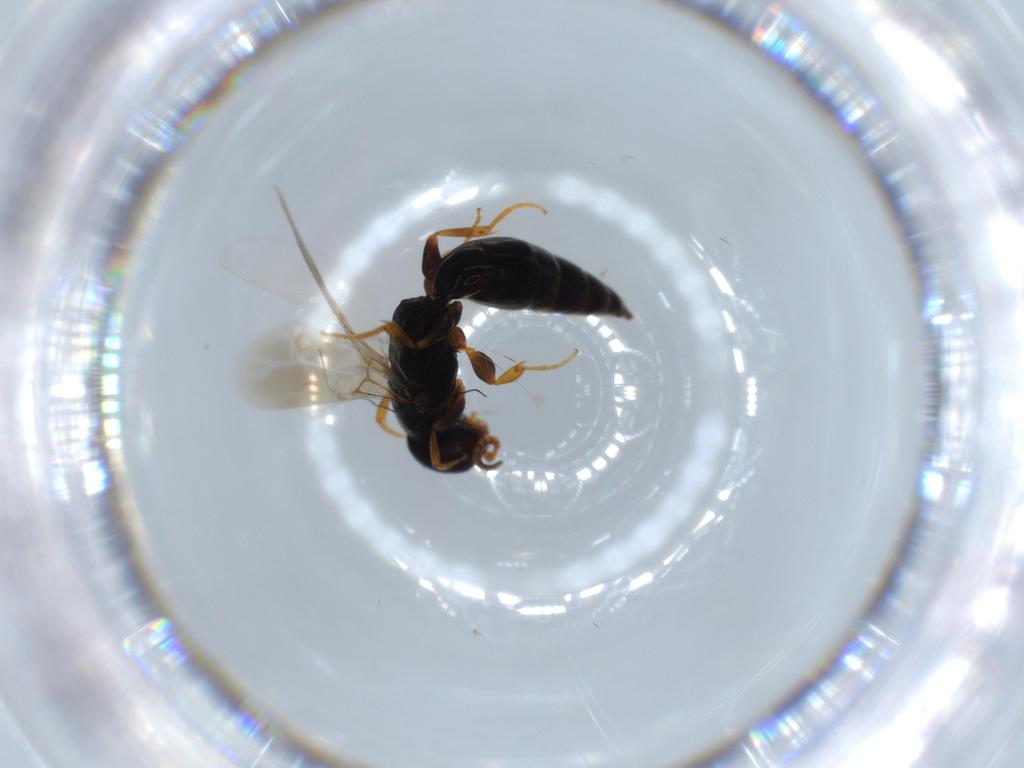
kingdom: Animalia
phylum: Arthropoda
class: Insecta
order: Hymenoptera
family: Bethylidae
